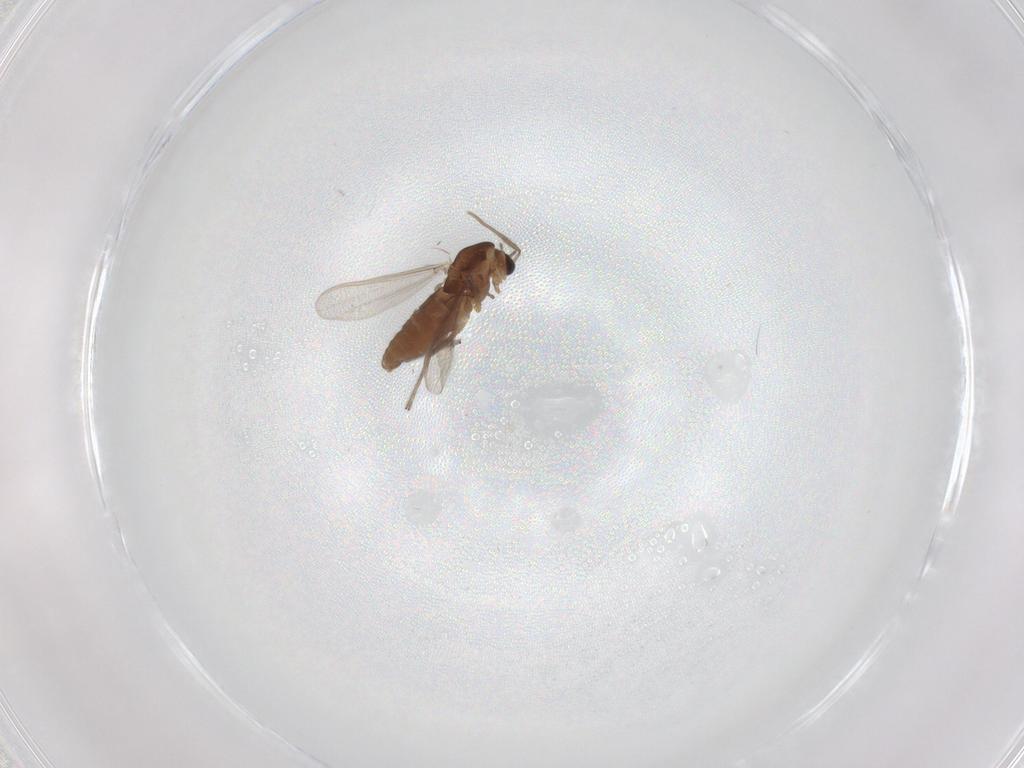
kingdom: Animalia
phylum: Arthropoda
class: Insecta
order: Diptera
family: Chironomidae
